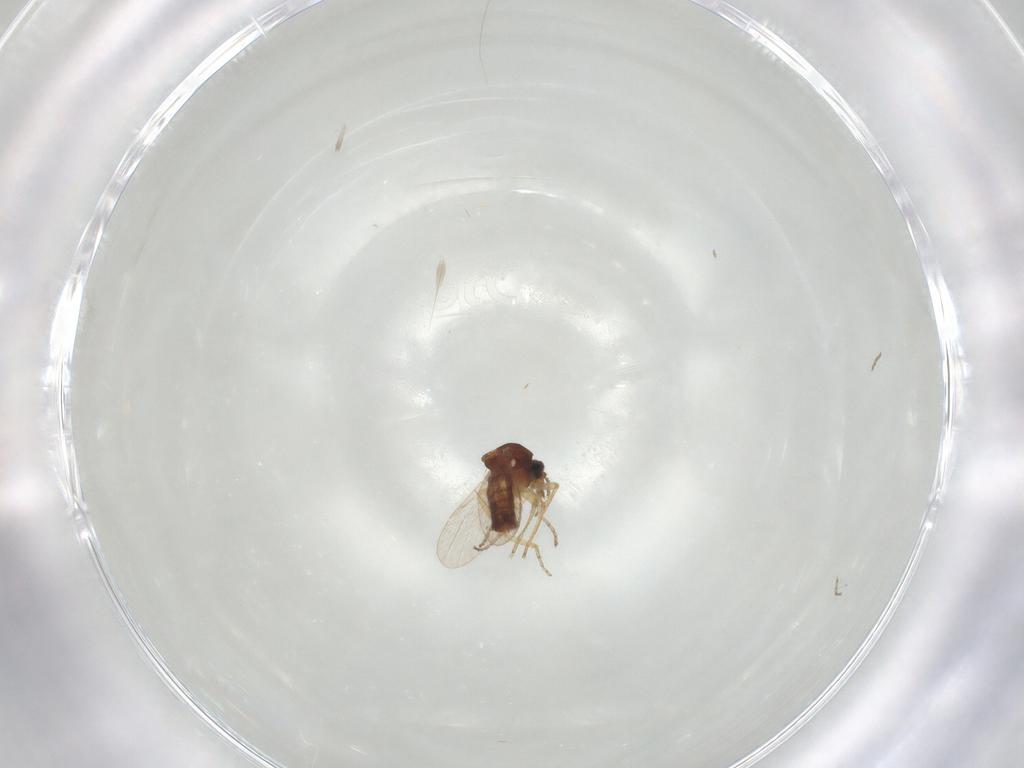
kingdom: Animalia
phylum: Arthropoda
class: Insecta
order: Diptera
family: Ceratopogonidae
